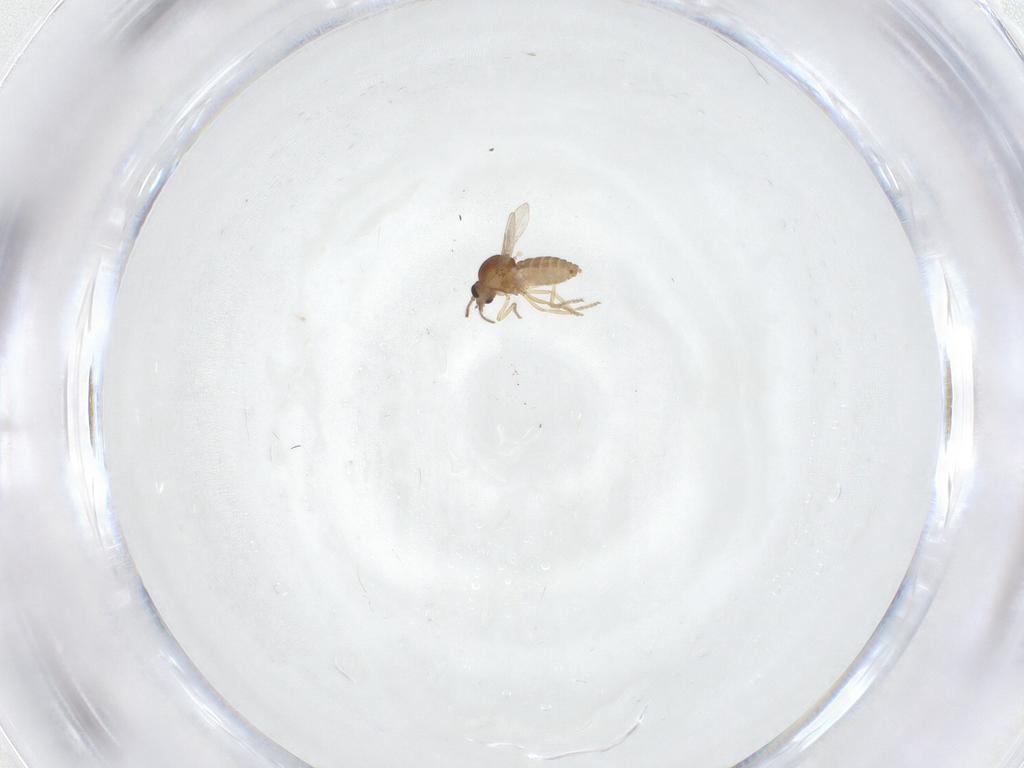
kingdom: Animalia
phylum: Arthropoda
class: Insecta
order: Diptera
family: Ceratopogonidae
